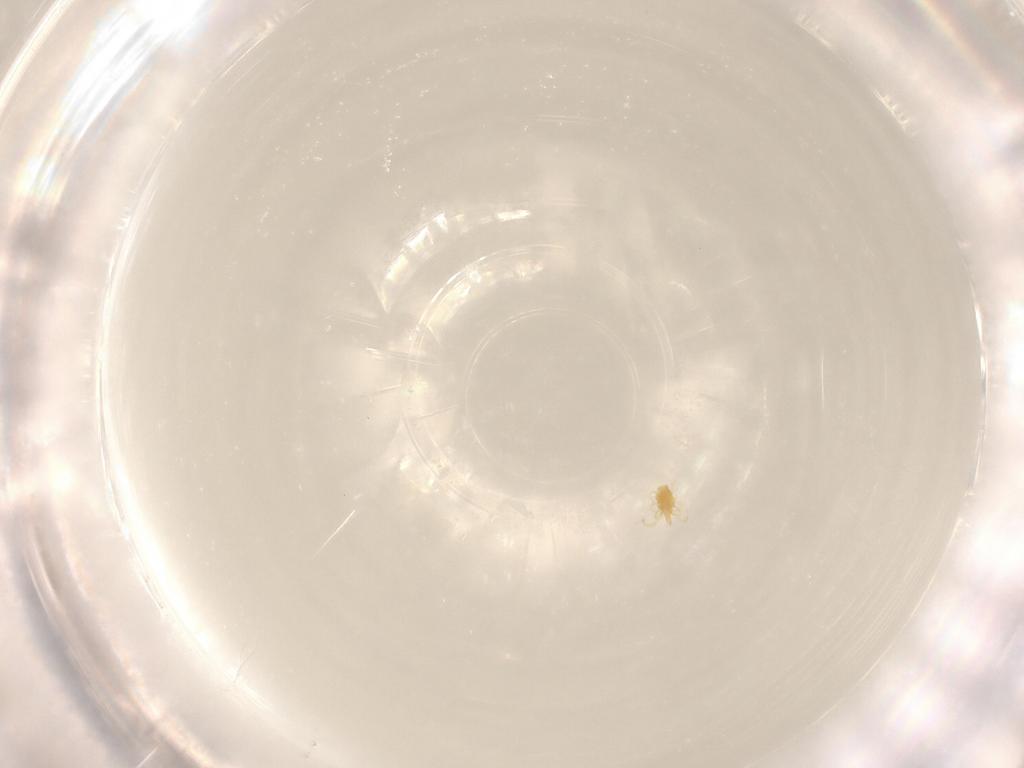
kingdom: Animalia
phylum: Arthropoda
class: Arachnida
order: Trombidiformes
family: Tetranychidae
